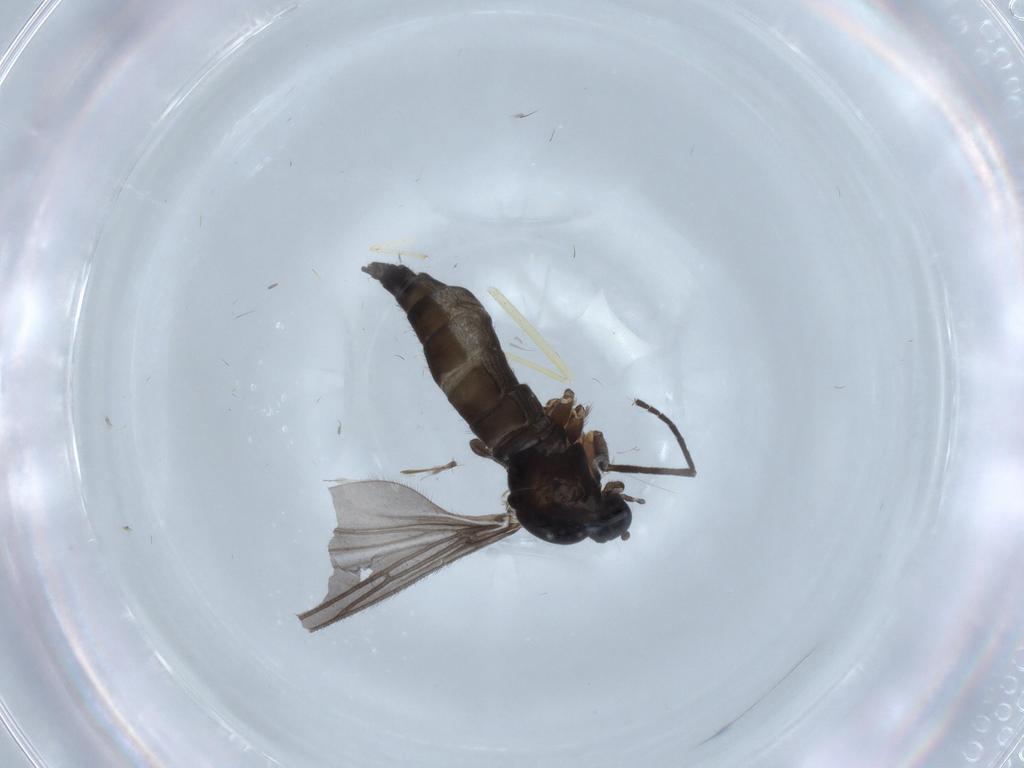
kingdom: Animalia
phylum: Arthropoda
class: Insecta
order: Diptera
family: Sciaridae
